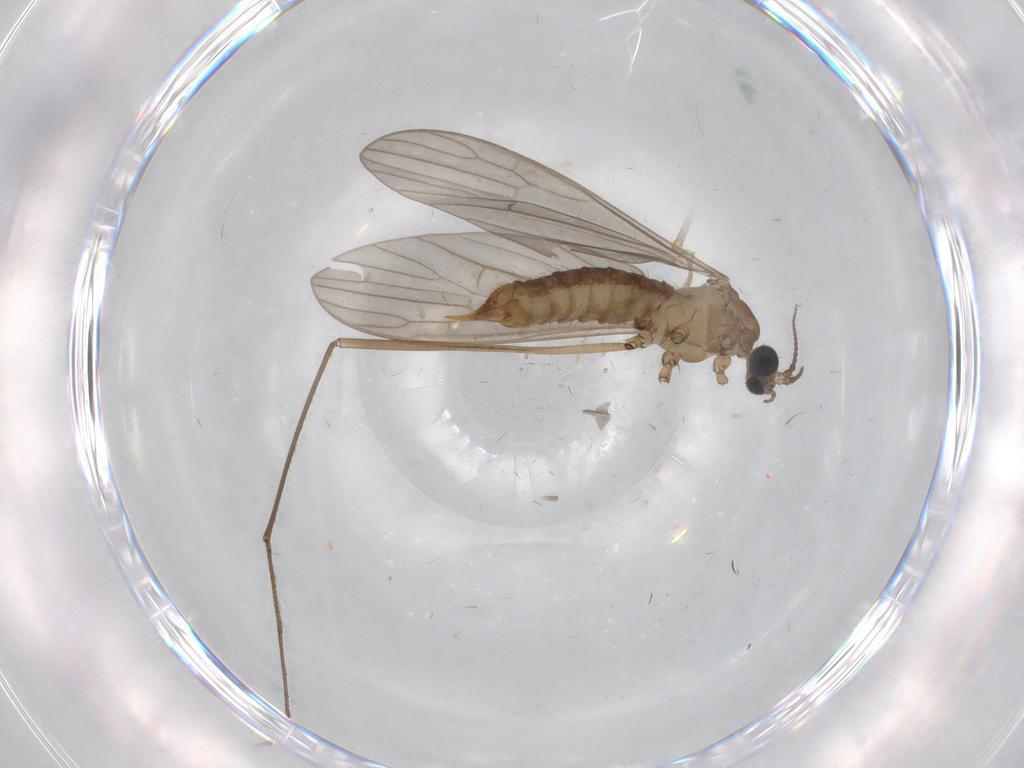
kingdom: Animalia
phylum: Arthropoda
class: Insecta
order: Diptera
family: Limoniidae
